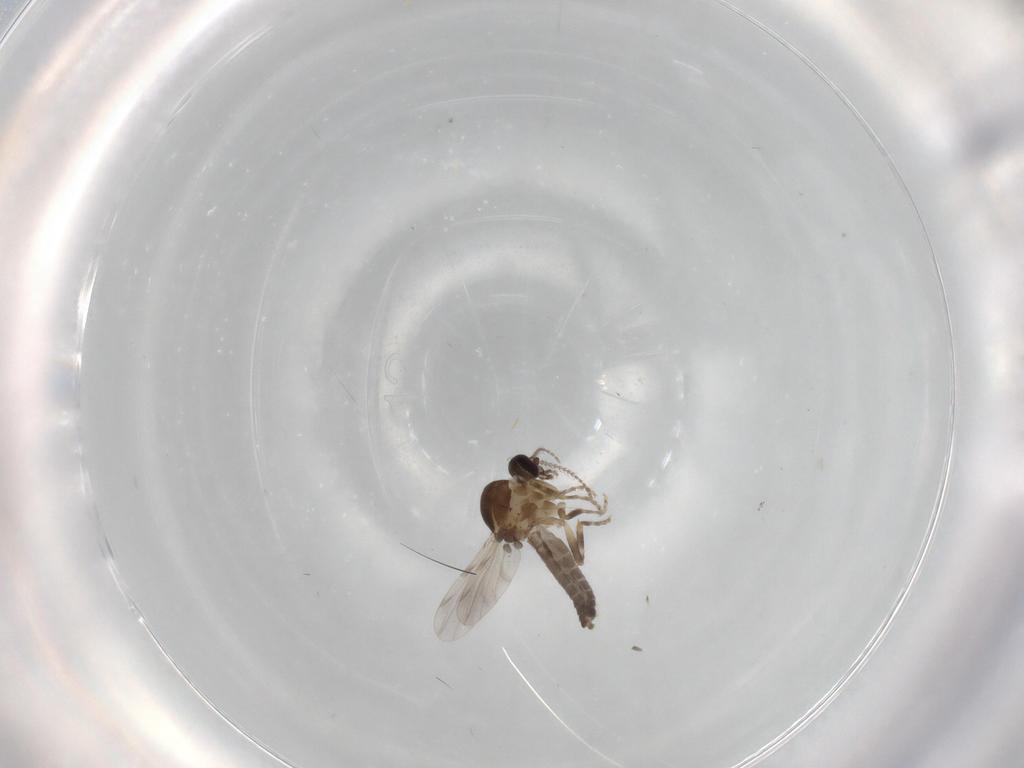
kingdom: Animalia
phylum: Arthropoda
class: Insecta
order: Diptera
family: Ceratopogonidae
